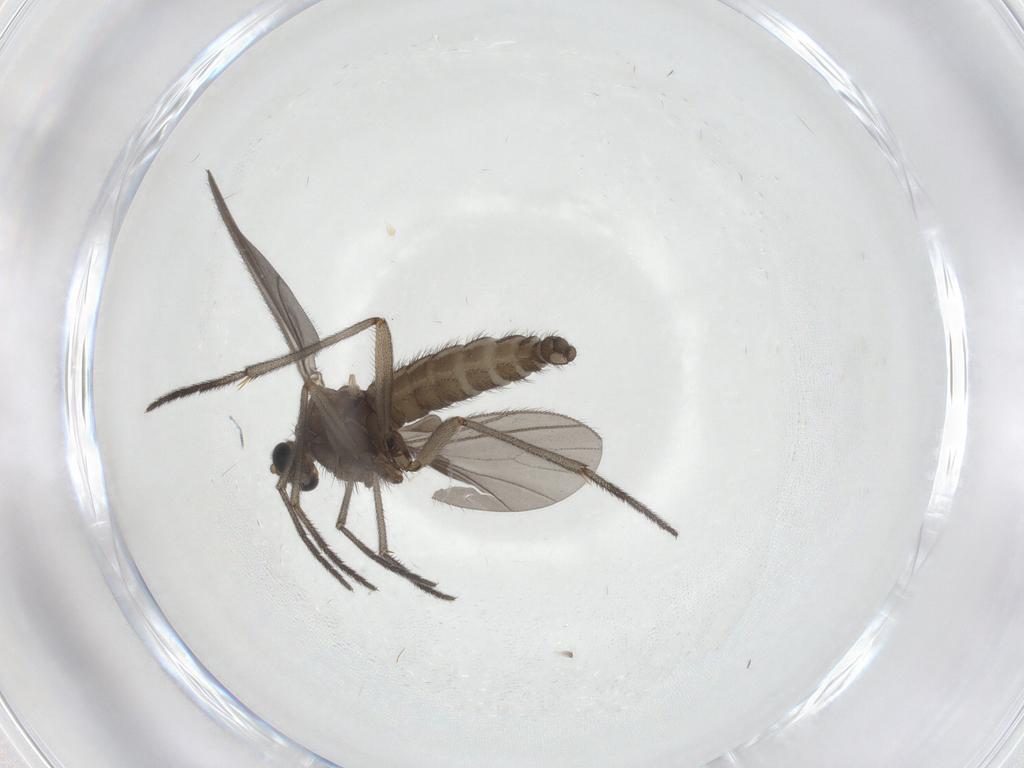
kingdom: Animalia
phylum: Arthropoda
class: Insecta
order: Diptera
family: Sciaridae
